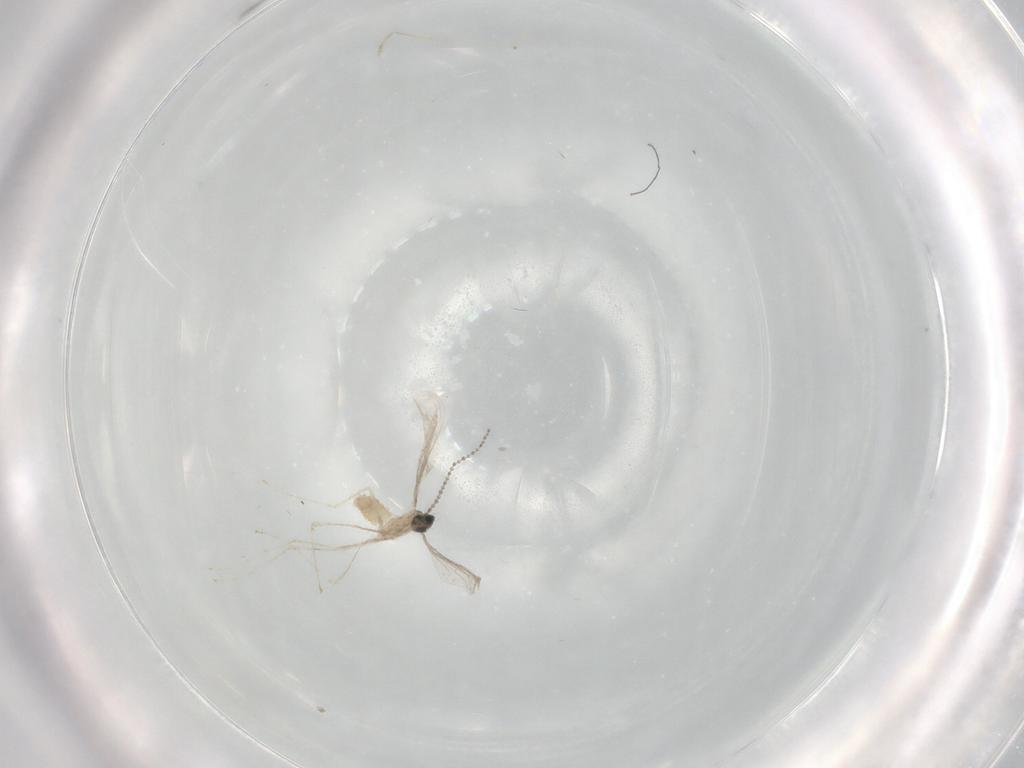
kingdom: Animalia
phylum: Arthropoda
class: Insecta
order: Diptera
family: Cecidomyiidae
